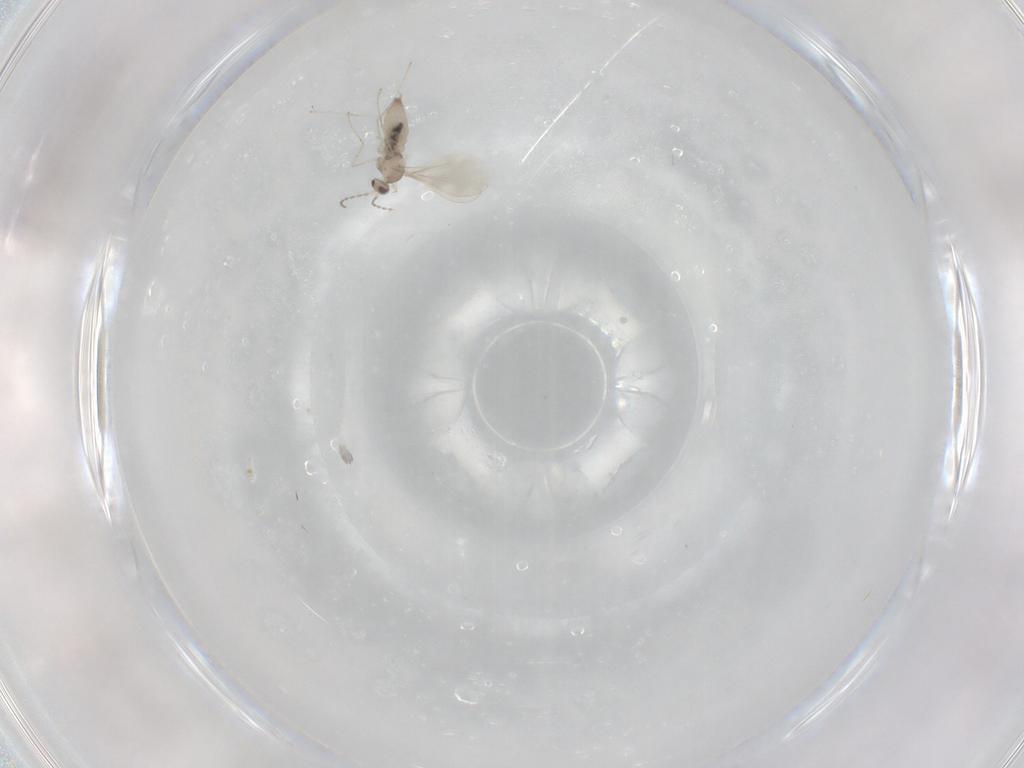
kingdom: Animalia
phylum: Arthropoda
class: Insecta
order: Diptera
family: Cecidomyiidae
